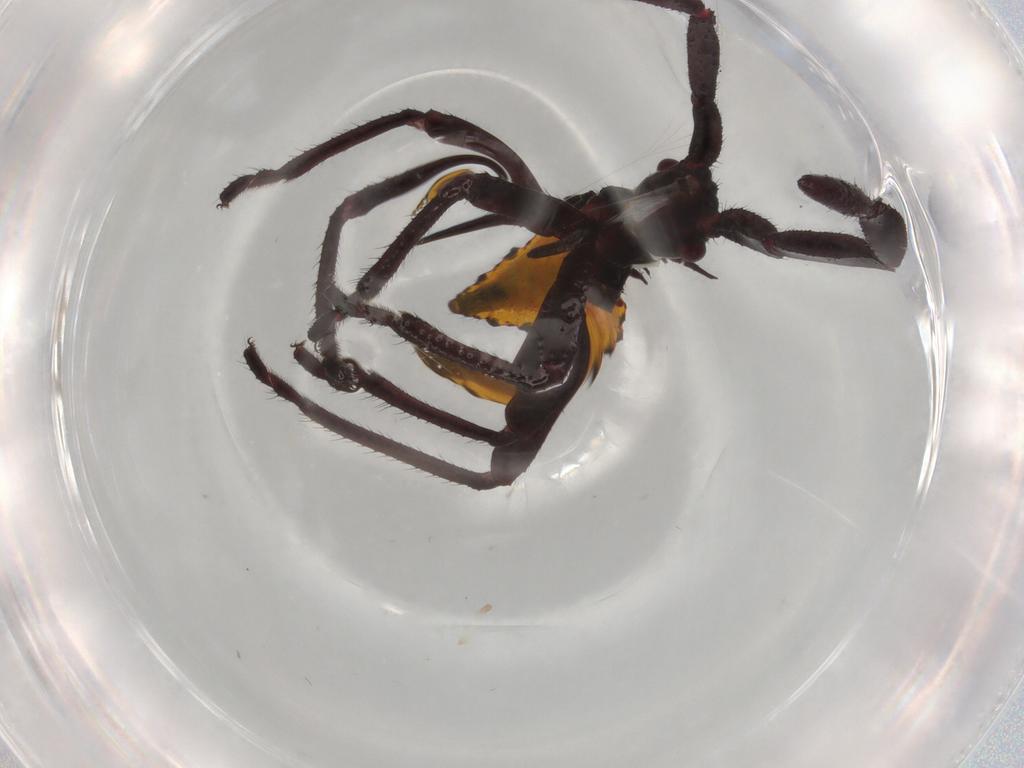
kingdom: Animalia
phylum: Arthropoda
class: Insecta
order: Hemiptera
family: Coreidae
